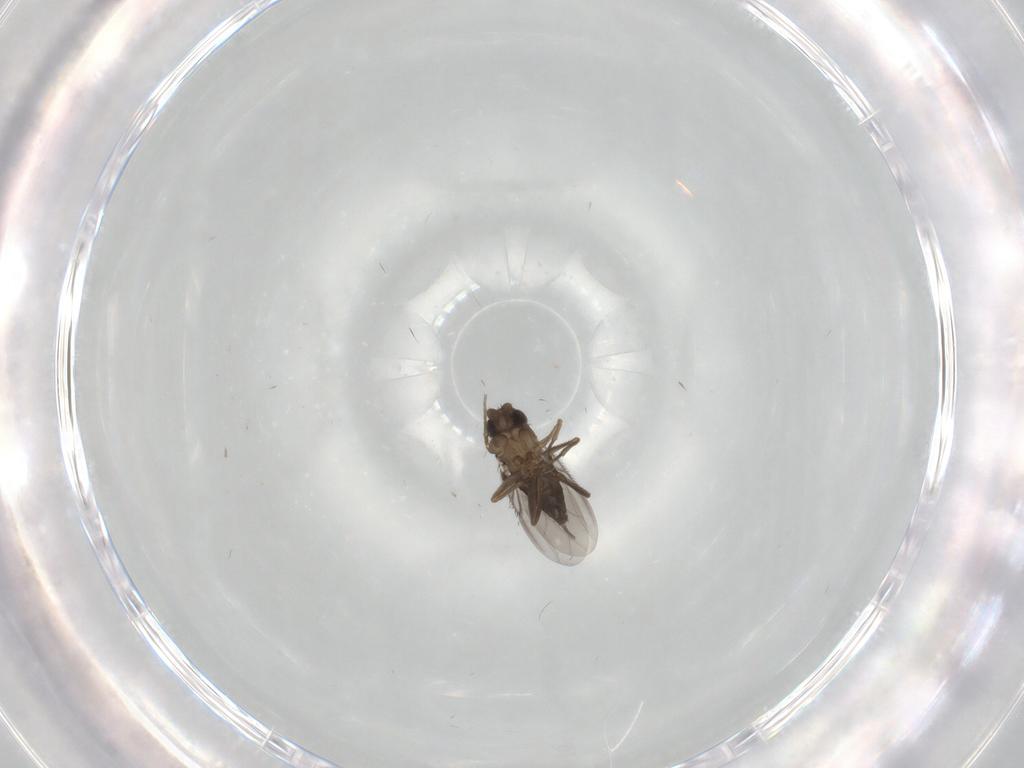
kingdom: Animalia
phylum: Arthropoda
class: Insecta
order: Diptera
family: Phoridae
